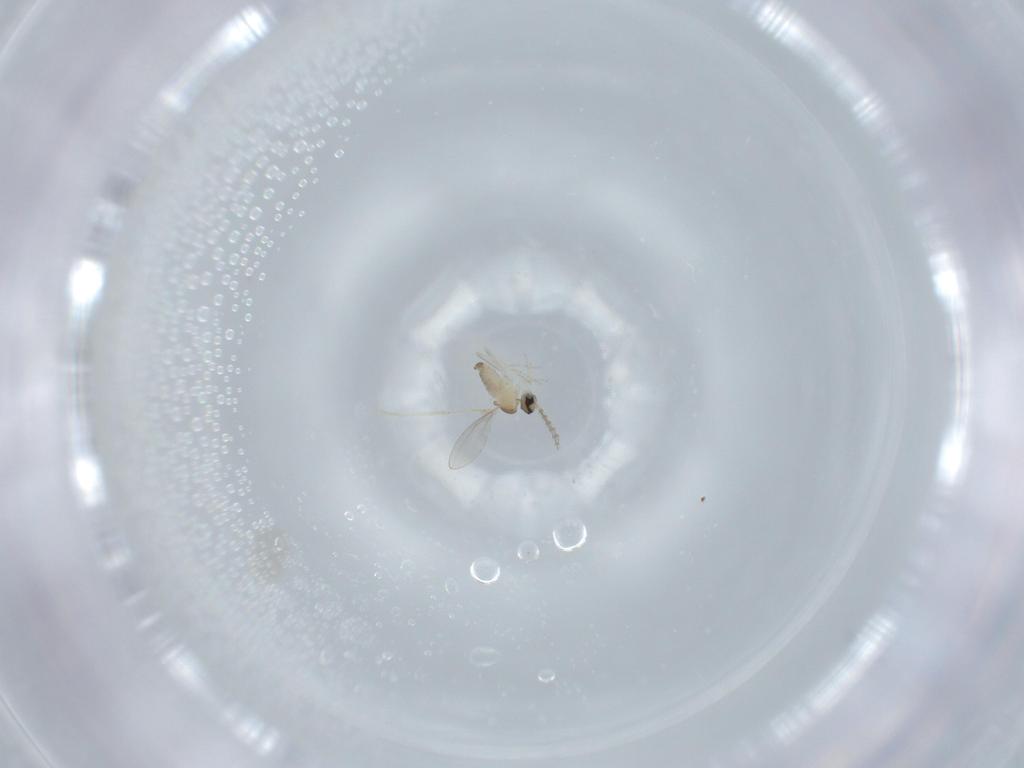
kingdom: Animalia
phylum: Arthropoda
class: Insecta
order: Diptera
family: Cecidomyiidae
